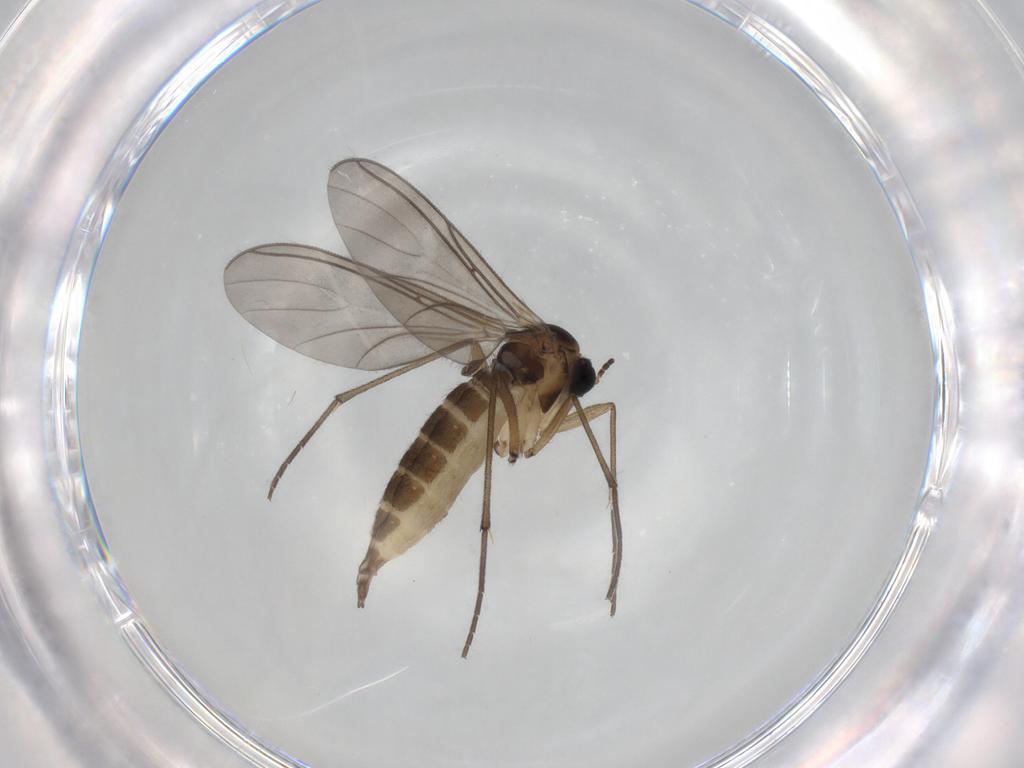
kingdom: Animalia
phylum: Arthropoda
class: Insecta
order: Diptera
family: Sciaridae
